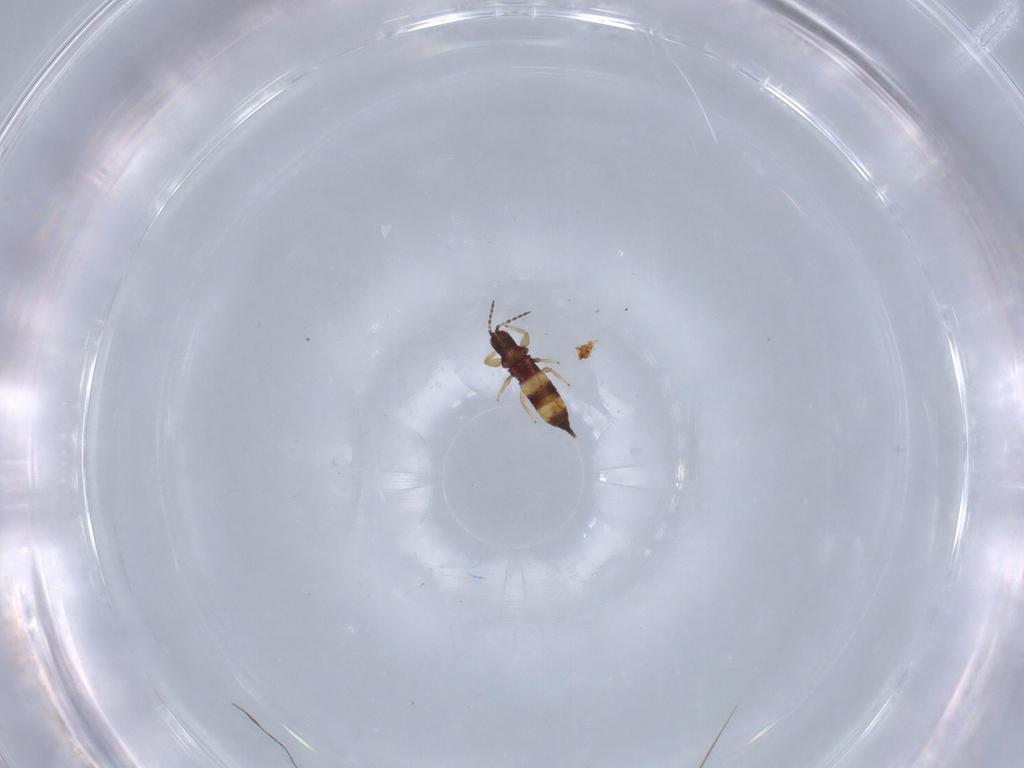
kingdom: Animalia
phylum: Arthropoda
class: Insecta
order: Thysanoptera
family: Phlaeothripidae
